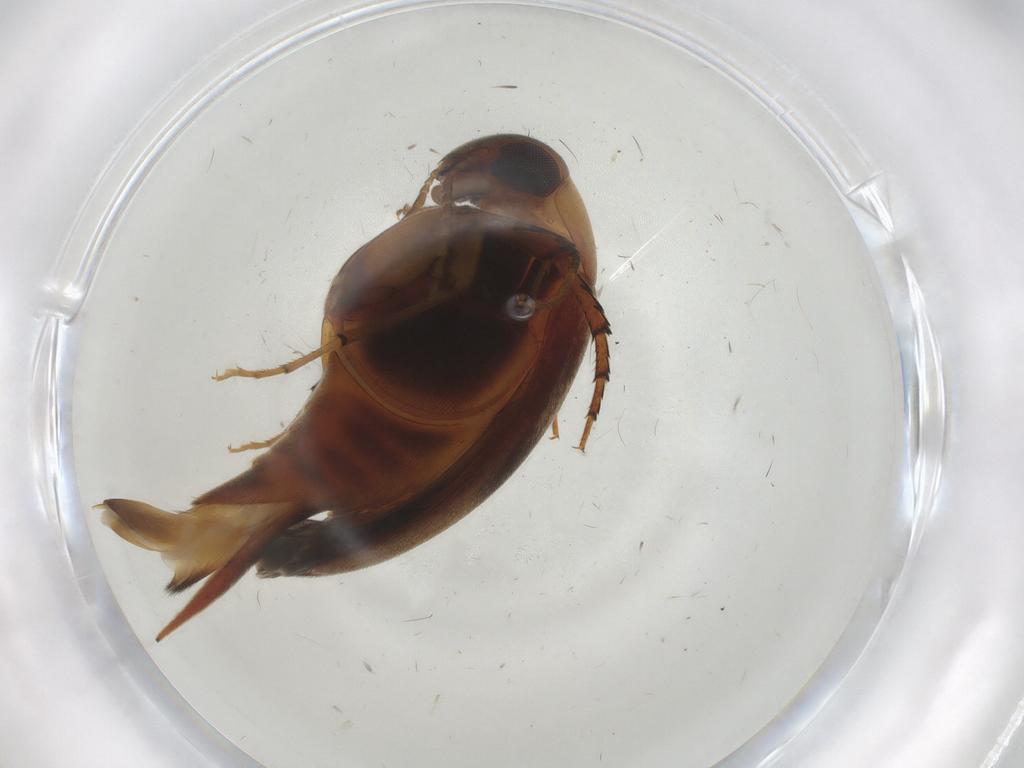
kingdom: Animalia
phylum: Arthropoda
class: Insecta
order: Coleoptera
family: Mordellidae
